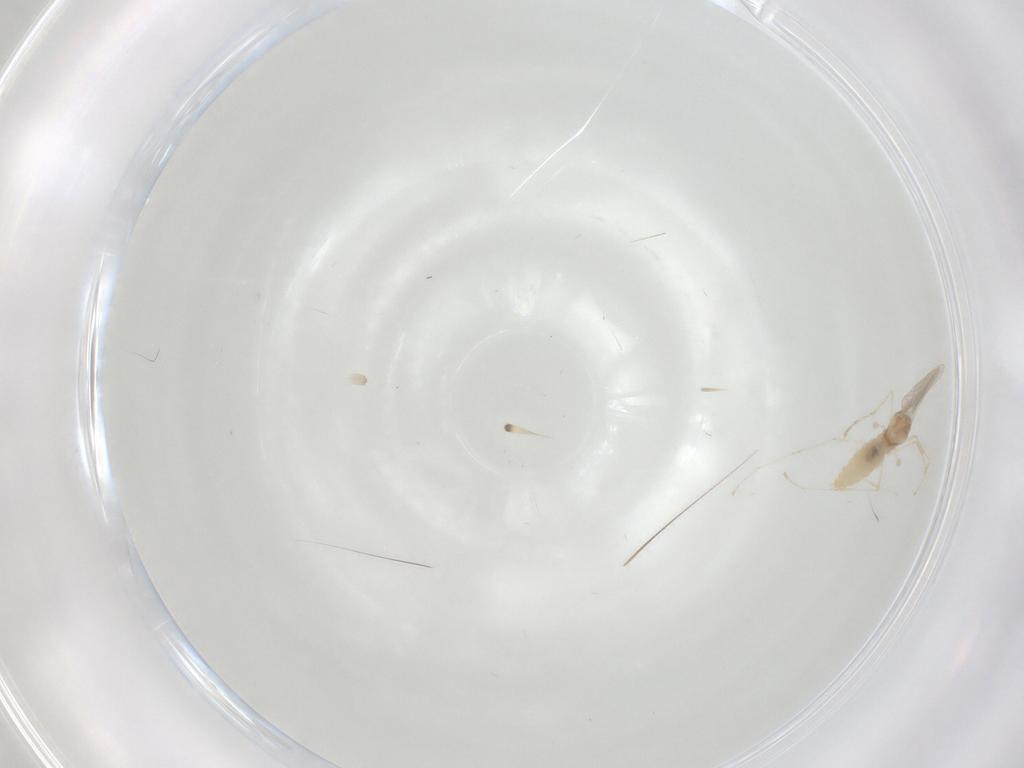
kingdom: Animalia
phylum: Arthropoda
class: Insecta
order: Diptera
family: Cecidomyiidae
